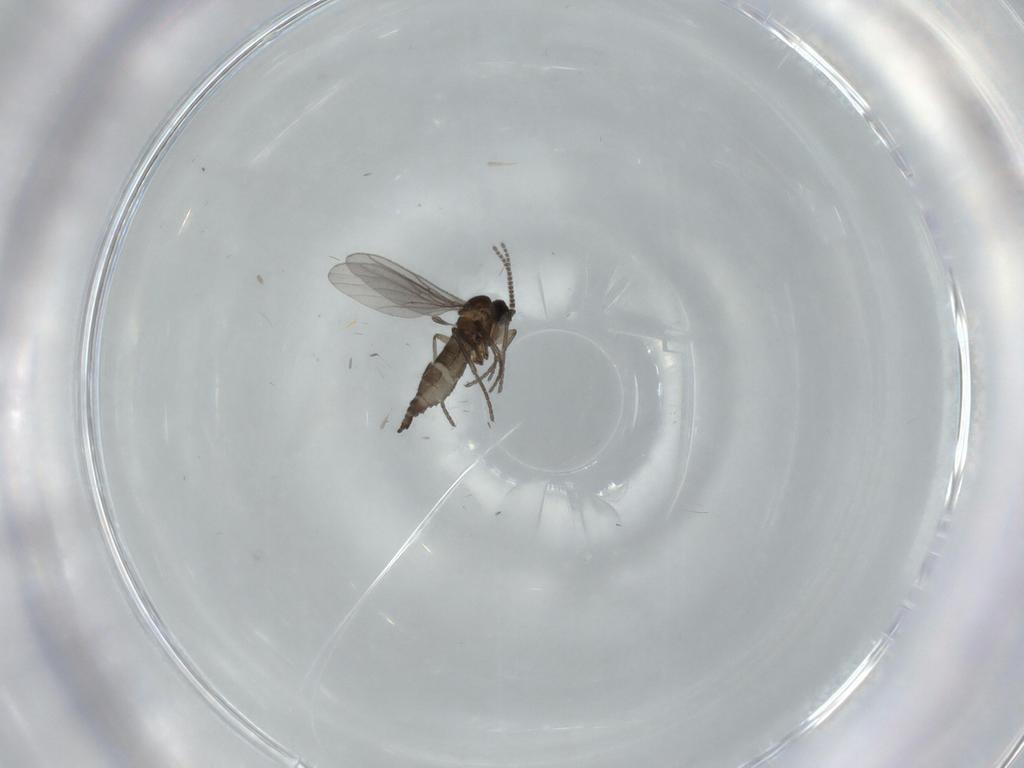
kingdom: Animalia
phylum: Arthropoda
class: Insecta
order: Diptera
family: Ceratopogonidae
